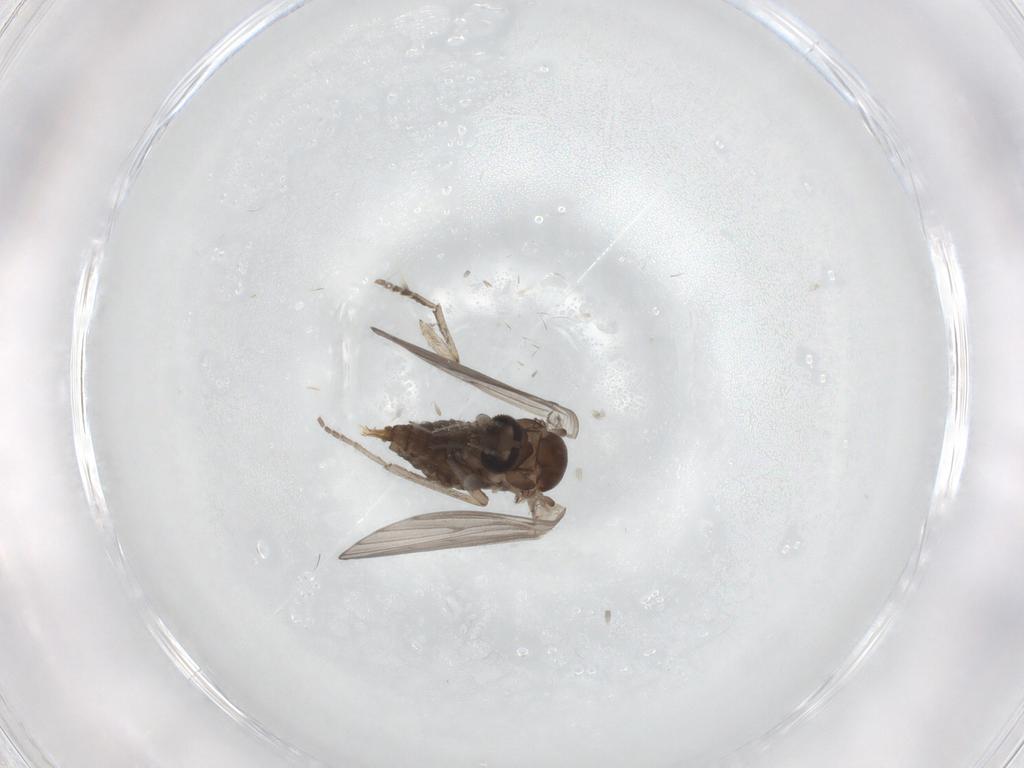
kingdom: Animalia
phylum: Arthropoda
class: Insecta
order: Diptera
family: Psychodidae
